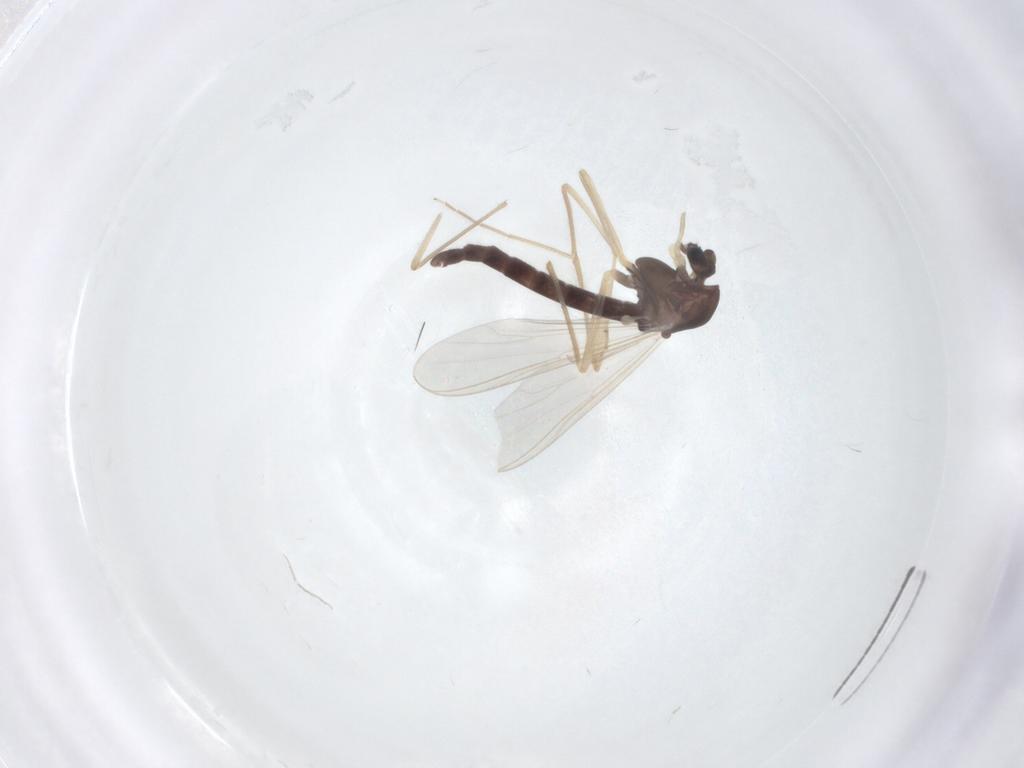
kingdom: Animalia
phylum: Arthropoda
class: Insecta
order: Diptera
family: Chironomidae
